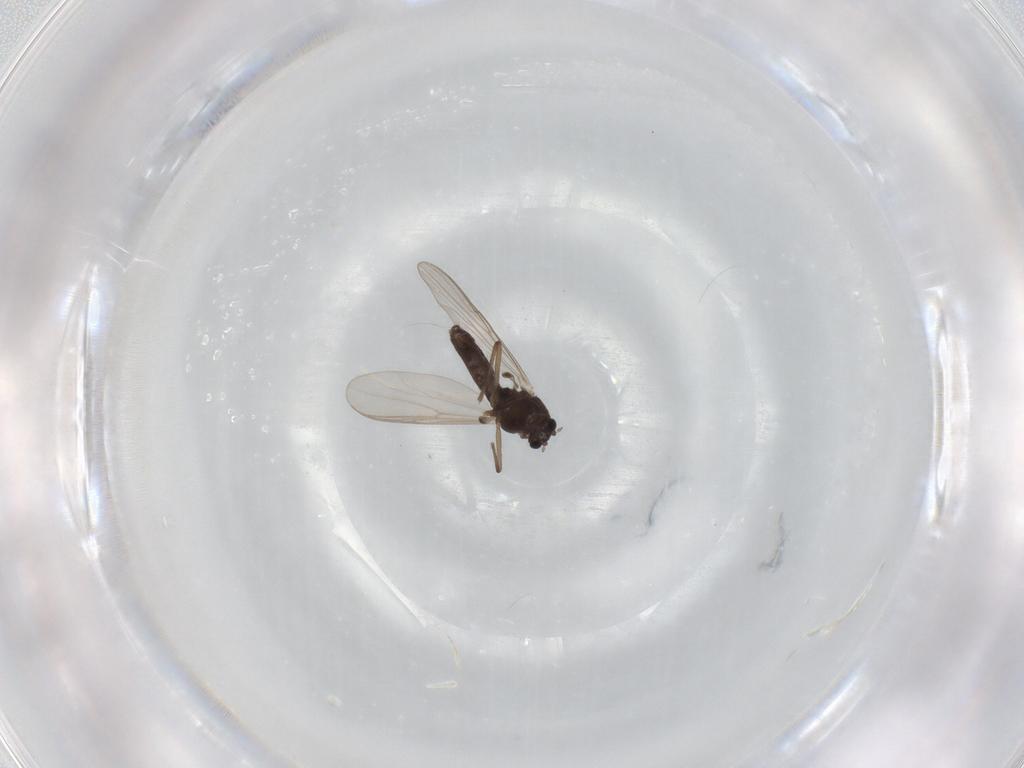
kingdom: Animalia
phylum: Arthropoda
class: Insecta
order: Diptera
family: Chironomidae
